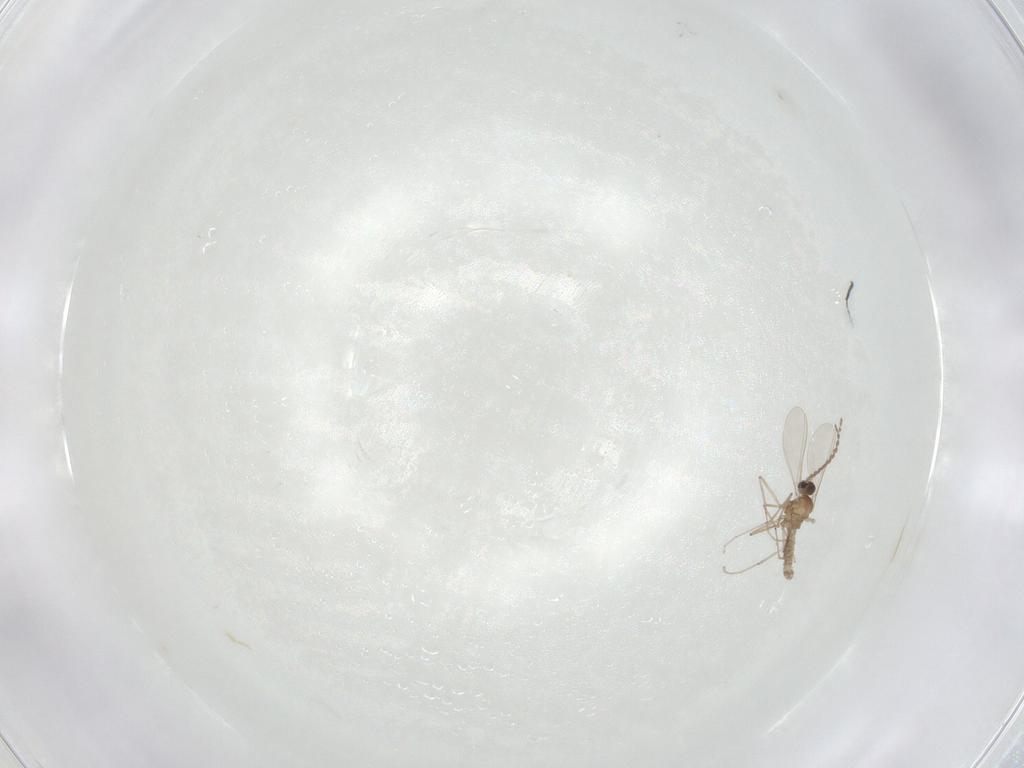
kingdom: Animalia
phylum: Arthropoda
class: Insecta
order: Diptera
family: Cecidomyiidae
